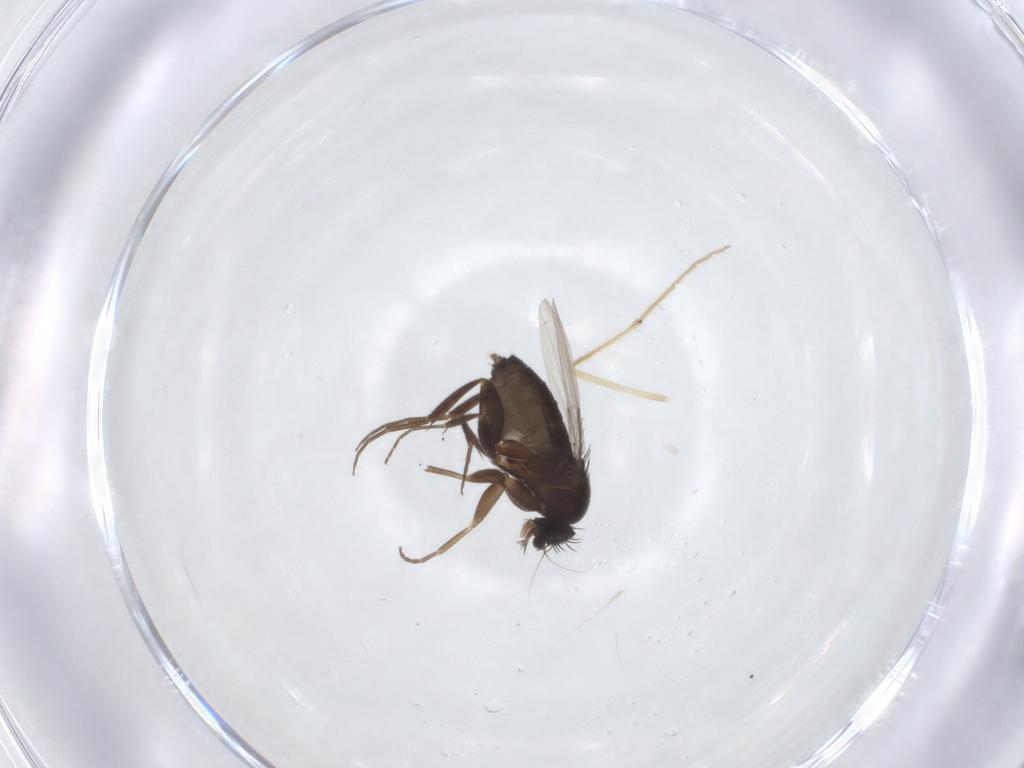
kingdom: Animalia
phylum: Arthropoda
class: Insecta
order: Diptera
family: Phoridae
